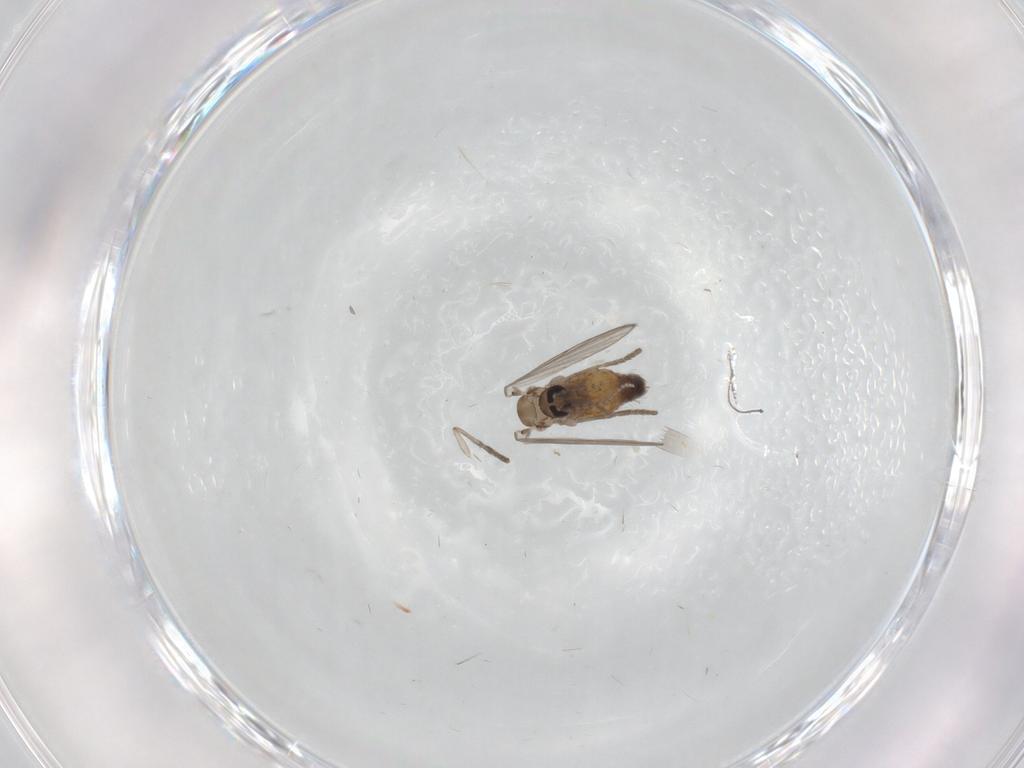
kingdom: Animalia
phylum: Arthropoda
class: Insecta
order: Diptera
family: Psychodidae
